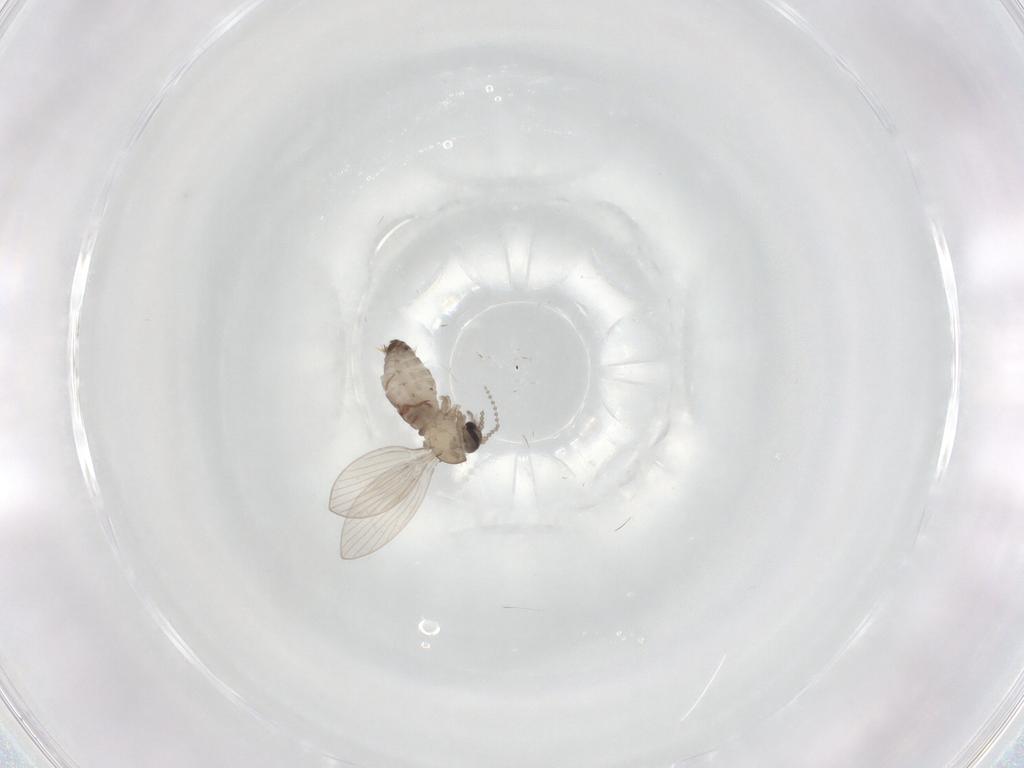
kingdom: Animalia
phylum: Arthropoda
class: Insecta
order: Diptera
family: Psychodidae
